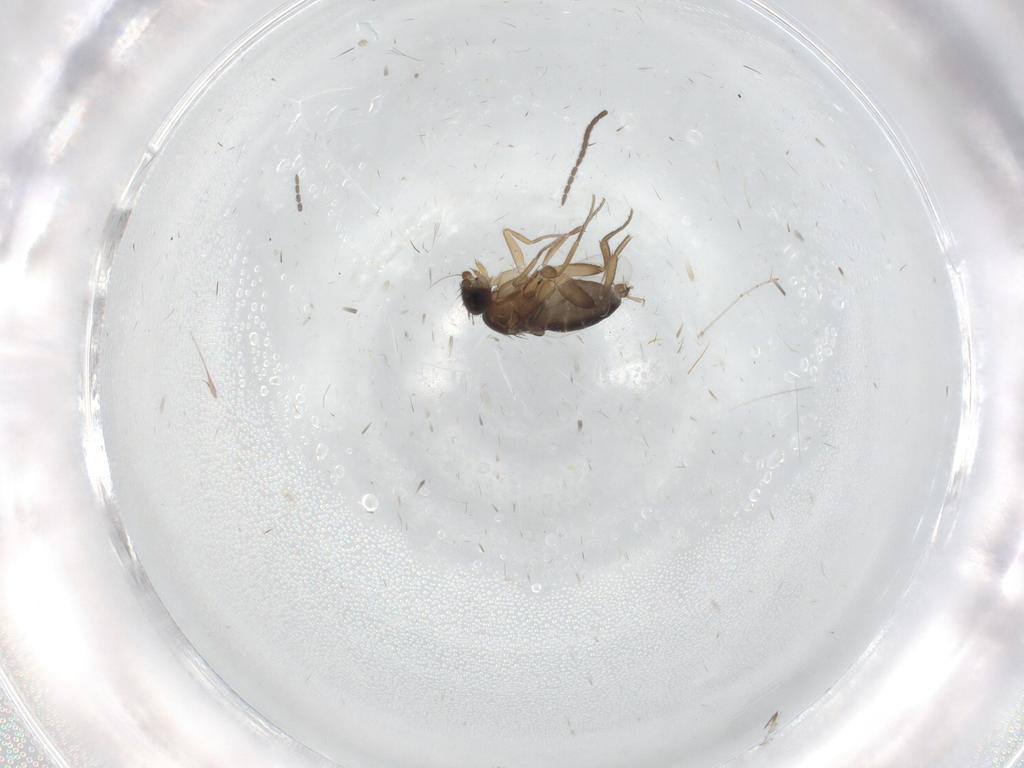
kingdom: Animalia
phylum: Arthropoda
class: Insecta
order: Diptera
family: Sciaridae
